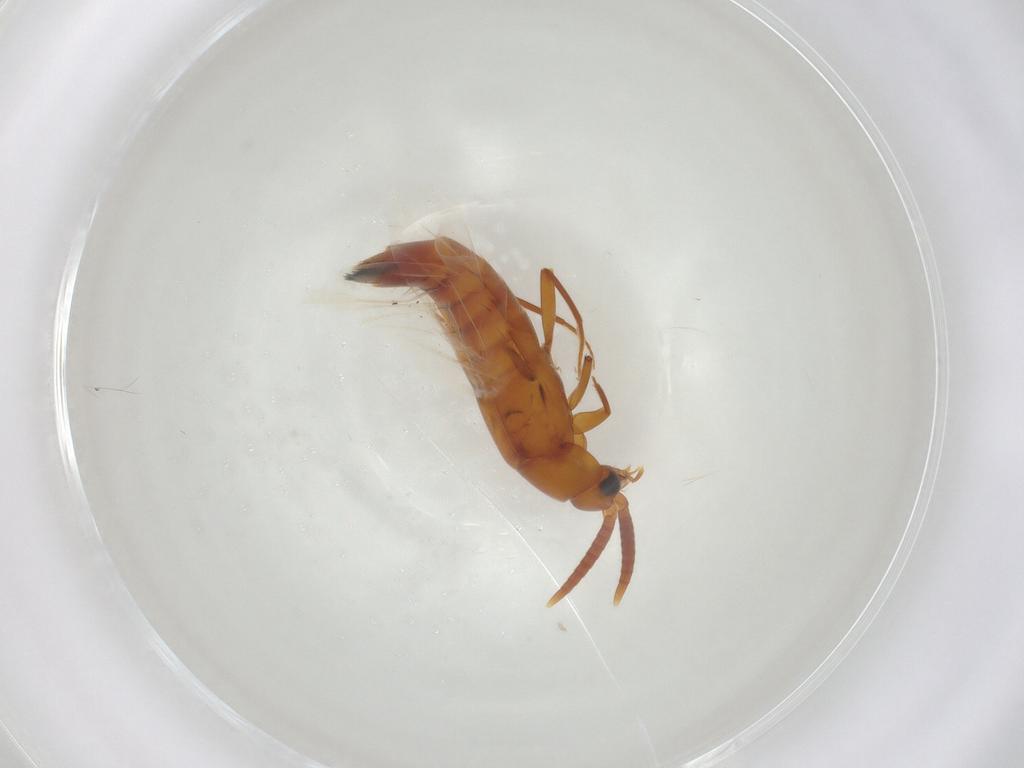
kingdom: Animalia
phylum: Arthropoda
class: Insecta
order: Coleoptera
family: Staphylinidae
